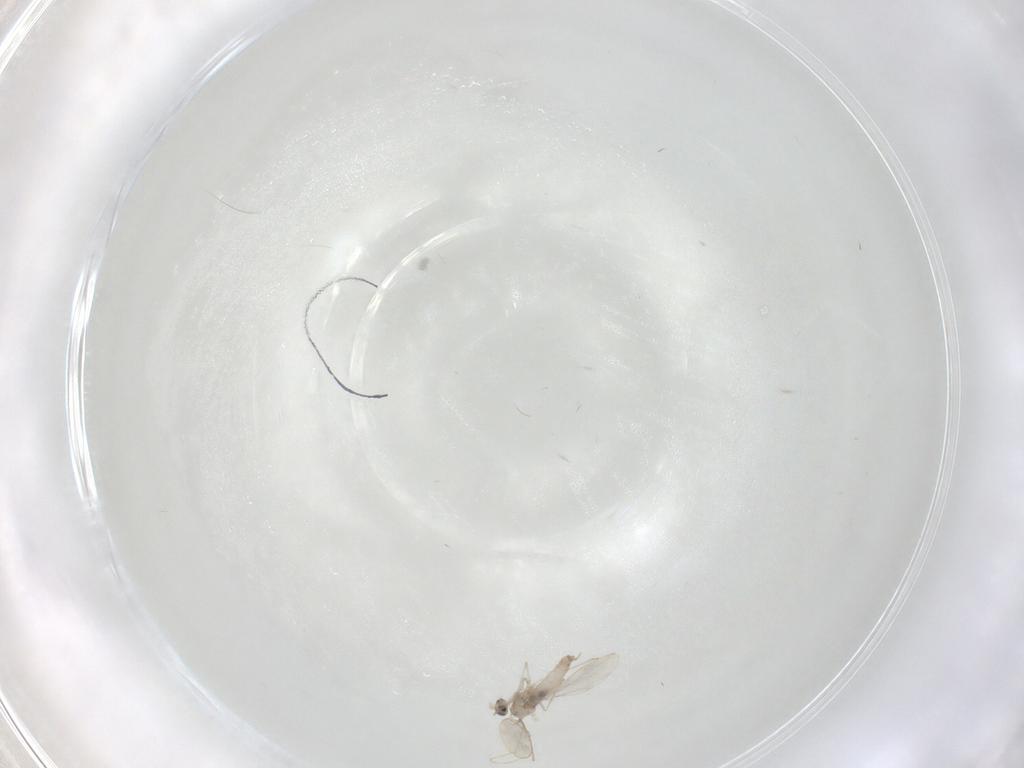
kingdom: Animalia
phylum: Arthropoda
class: Insecta
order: Diptera
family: Cecidomyiidae
